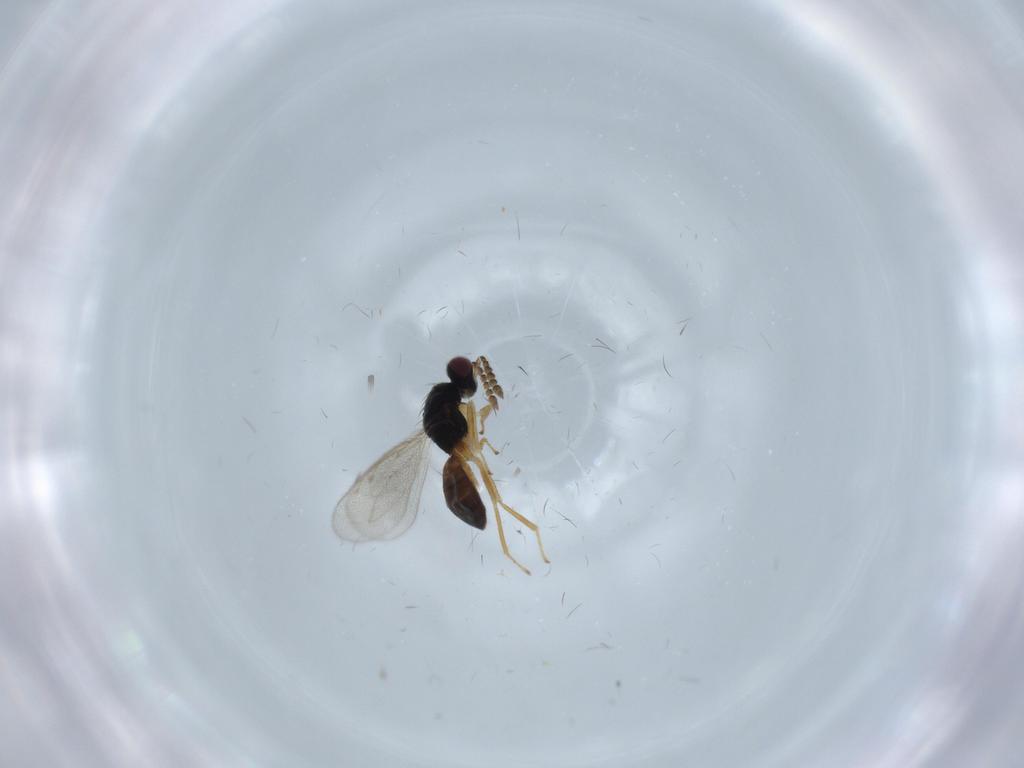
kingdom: Animalia
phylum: Arthropoda
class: Insecta
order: Hymenoptera
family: Eulophidae
